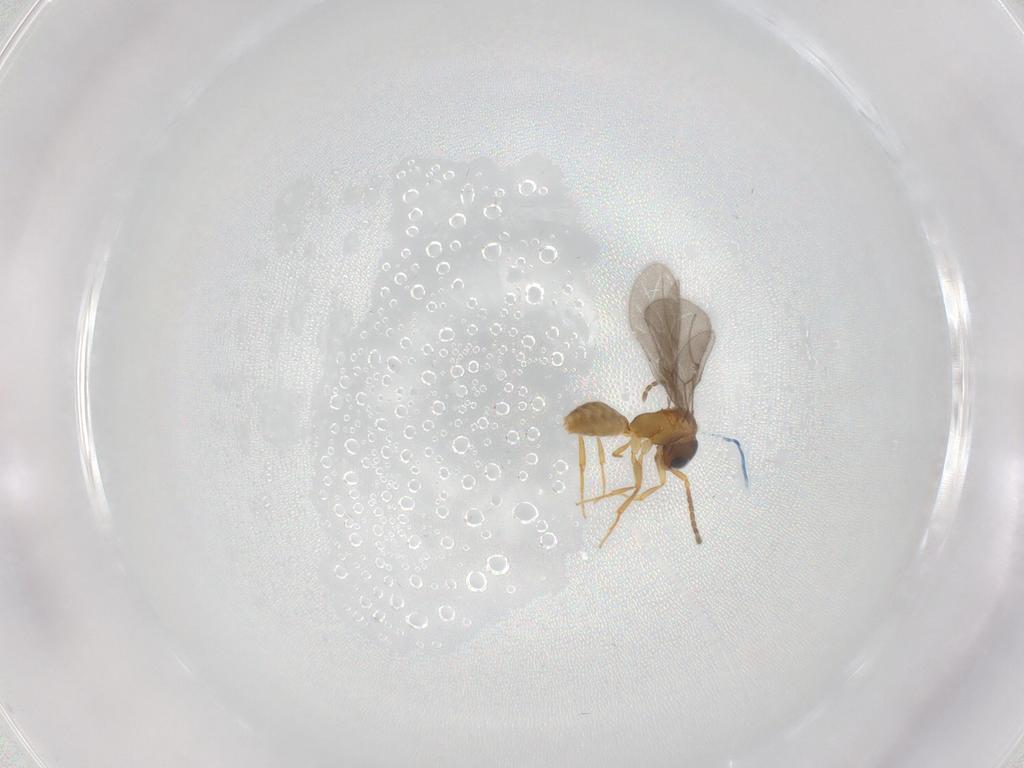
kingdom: Animalia
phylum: Arthropoda
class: Insecta
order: Hymenoptera
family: Bethylidae
